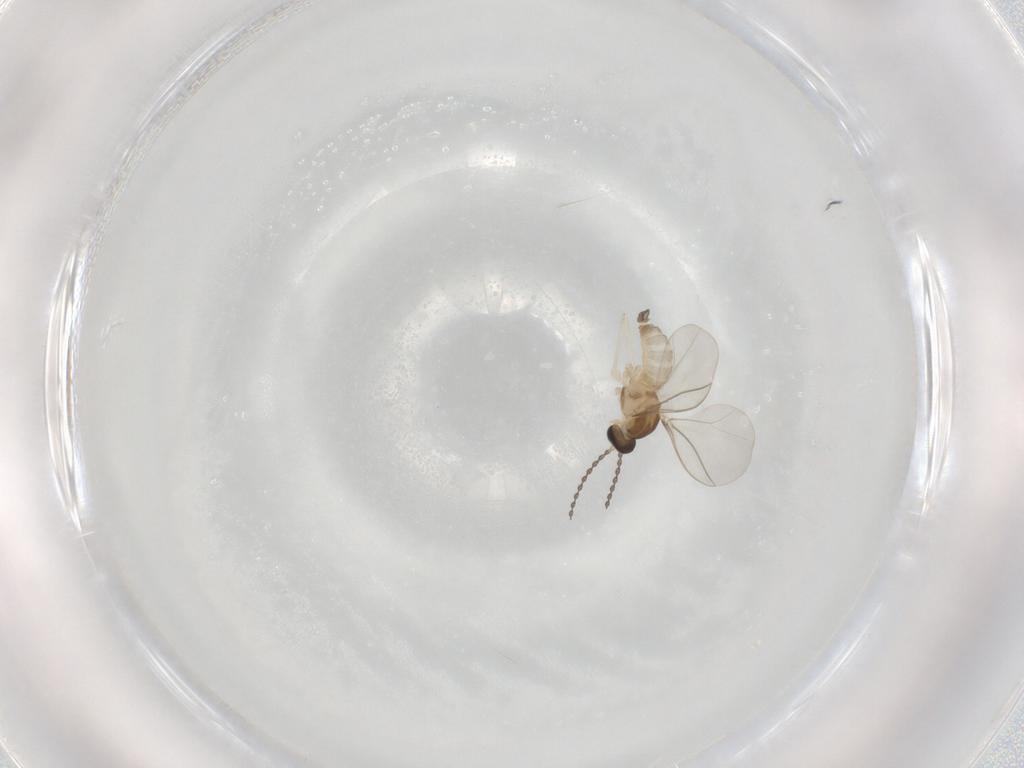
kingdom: Animalia
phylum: Arthropoda
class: Insecta
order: Diptera
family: Cecidomyiidae
